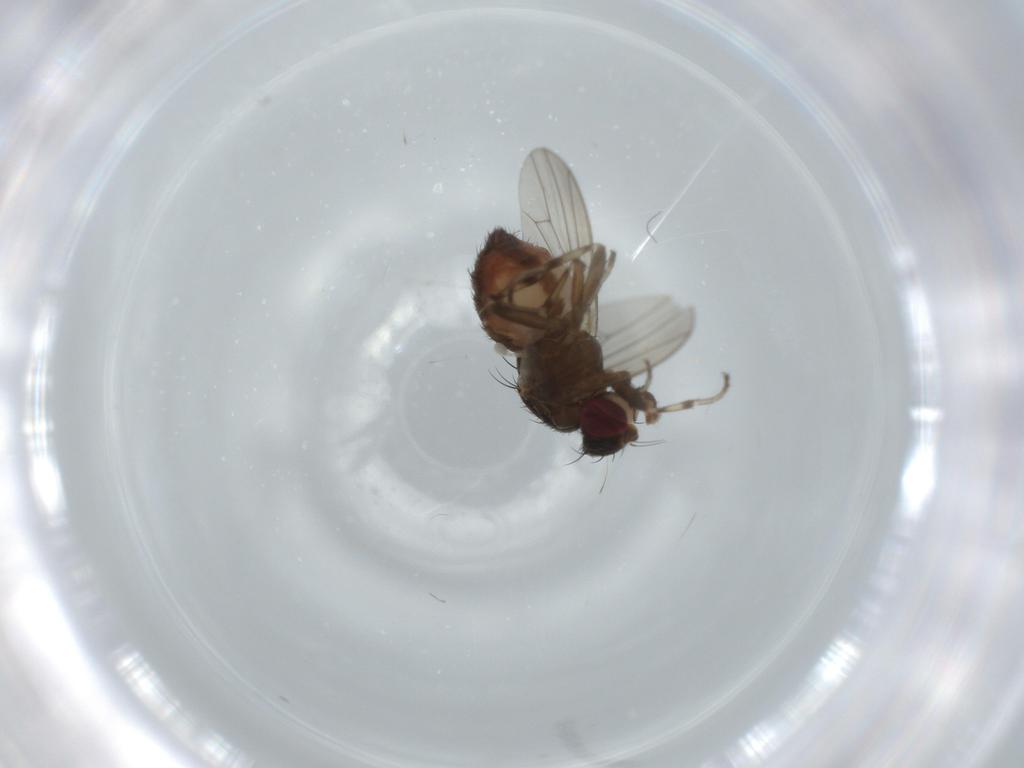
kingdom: Animalia
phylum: Arthropoda
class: Insecta
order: Diptera
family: Heleomyzidae
